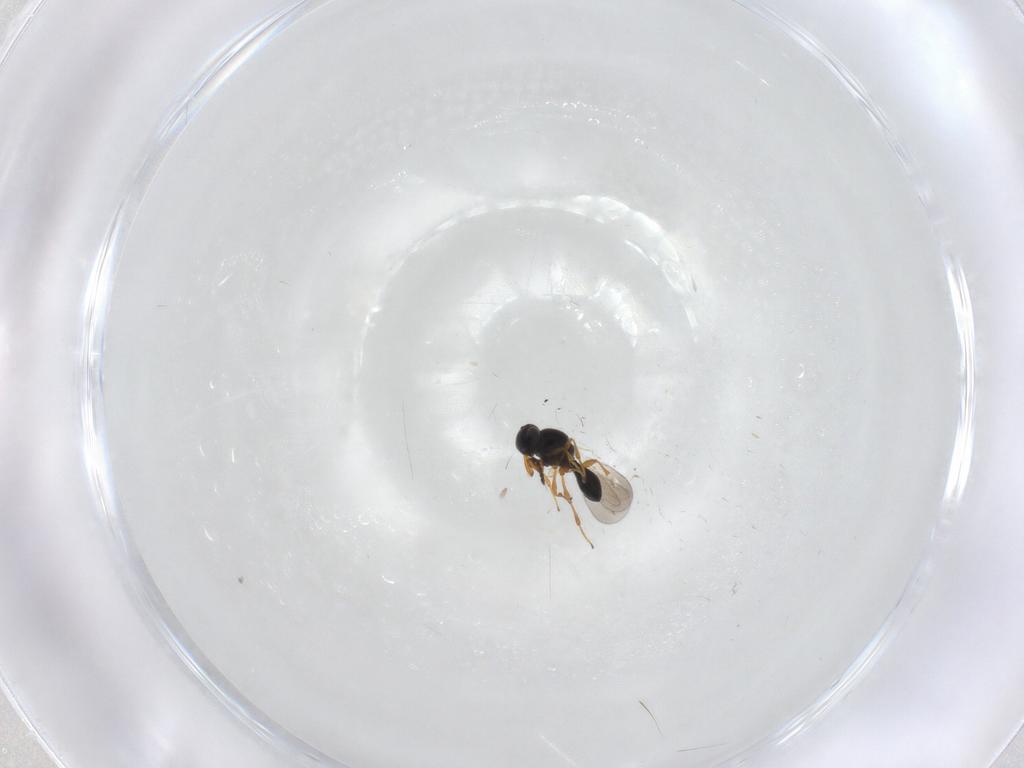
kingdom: Animalia
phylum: Arthropoda
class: Insecta
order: Hymenoptera
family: Platygastridae
